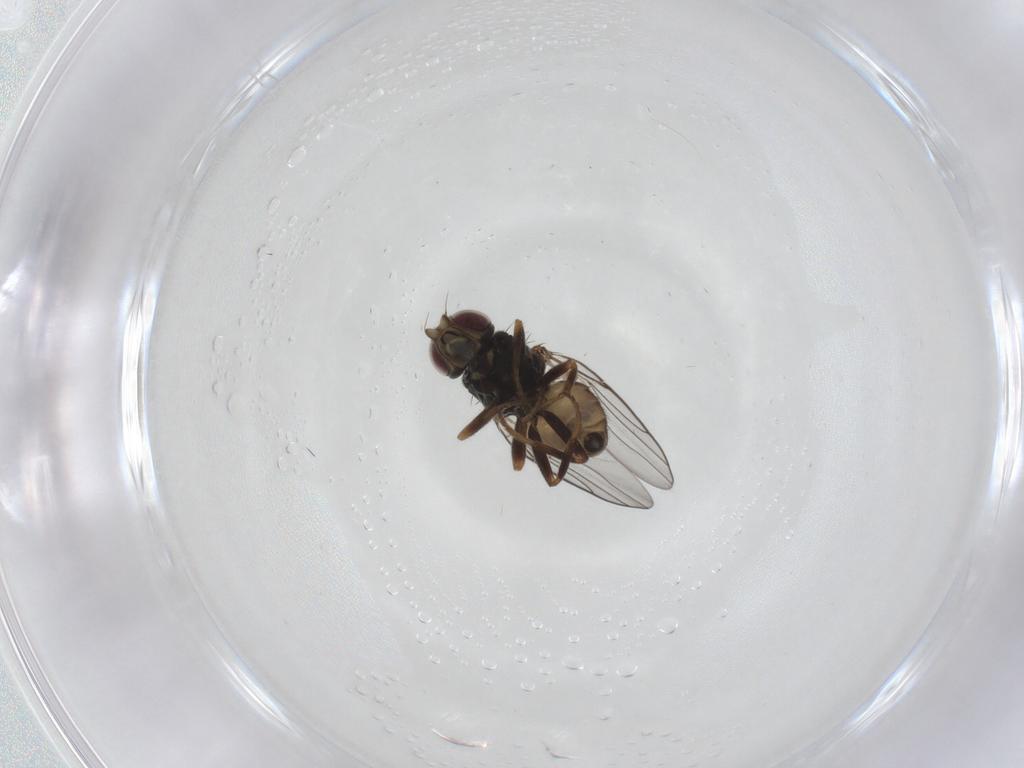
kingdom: Animalia
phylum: Arthropoda
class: Insecta
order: Diptera
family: Chloropidae
